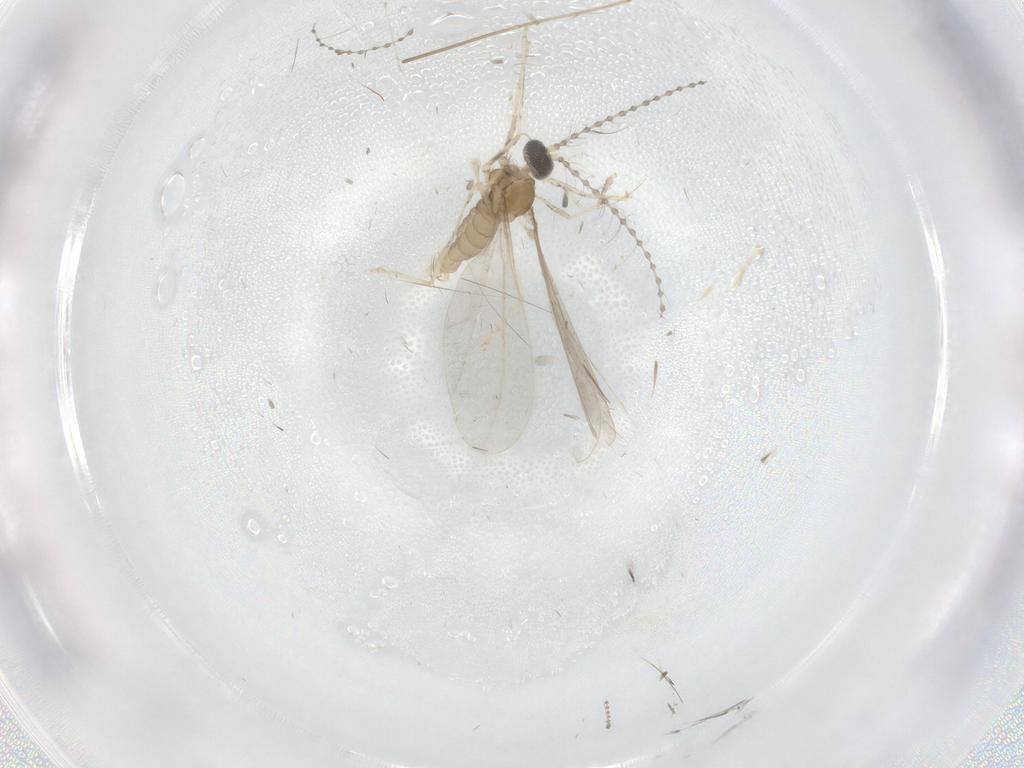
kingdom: Animalia
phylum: Arthropoda
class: Insecta
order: Diptera
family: Cecidomyiidae
